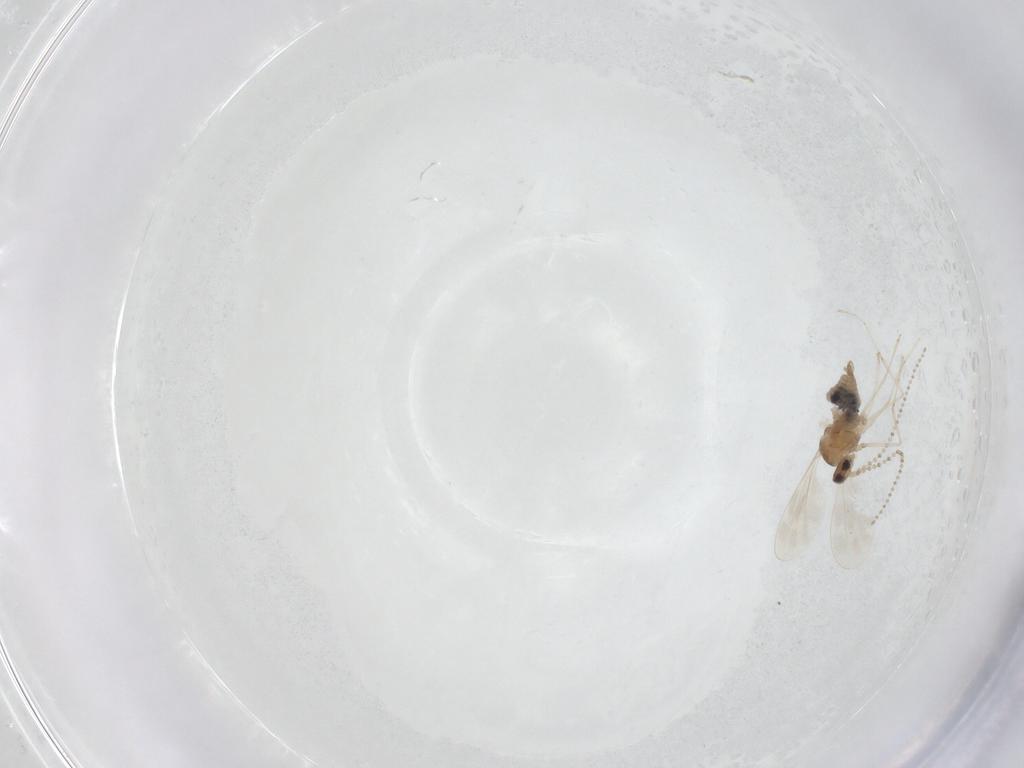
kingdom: Animalia
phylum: Arthropoda
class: Insecta
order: Diptera
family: Cecidomyiidae
